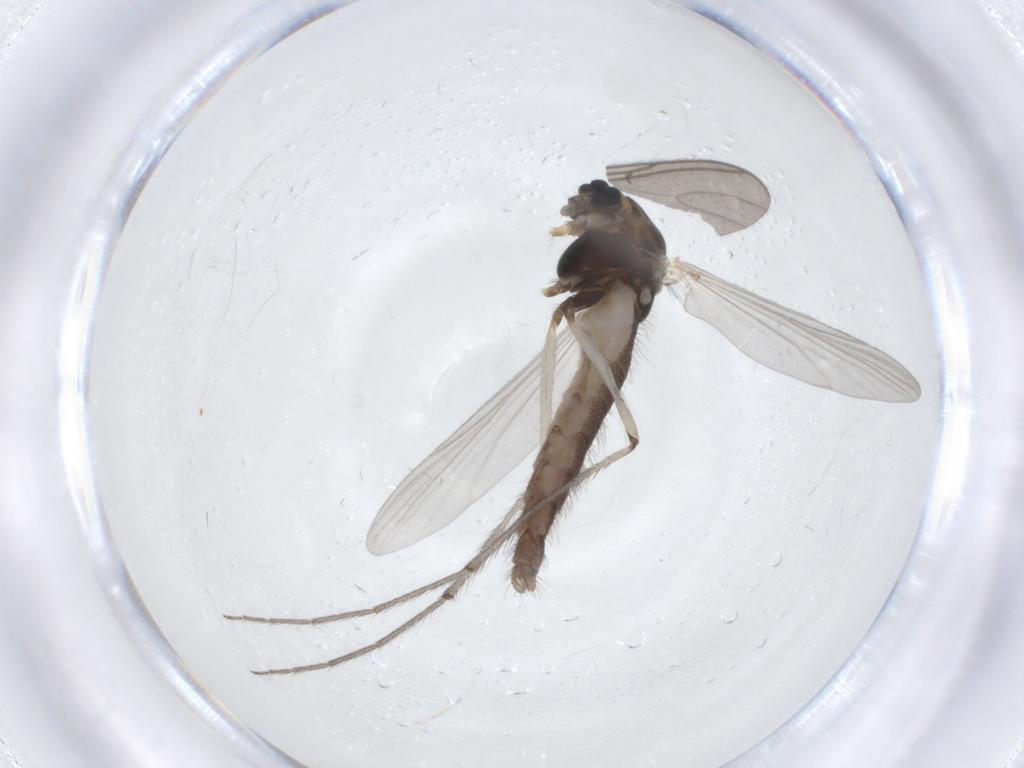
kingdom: Animalia
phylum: Arthropoda
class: Insecta
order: Diptera
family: Chironomidae
